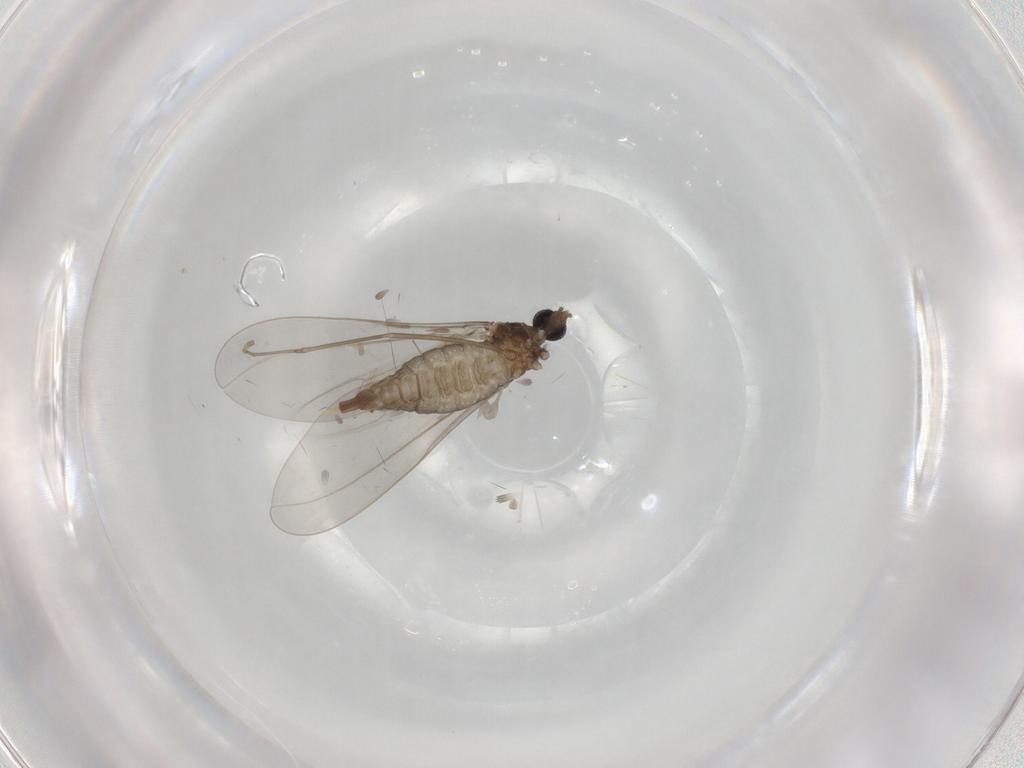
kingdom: Animalia
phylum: Arthropoda
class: Insecta
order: Diptera
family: Cecidomyiidae
